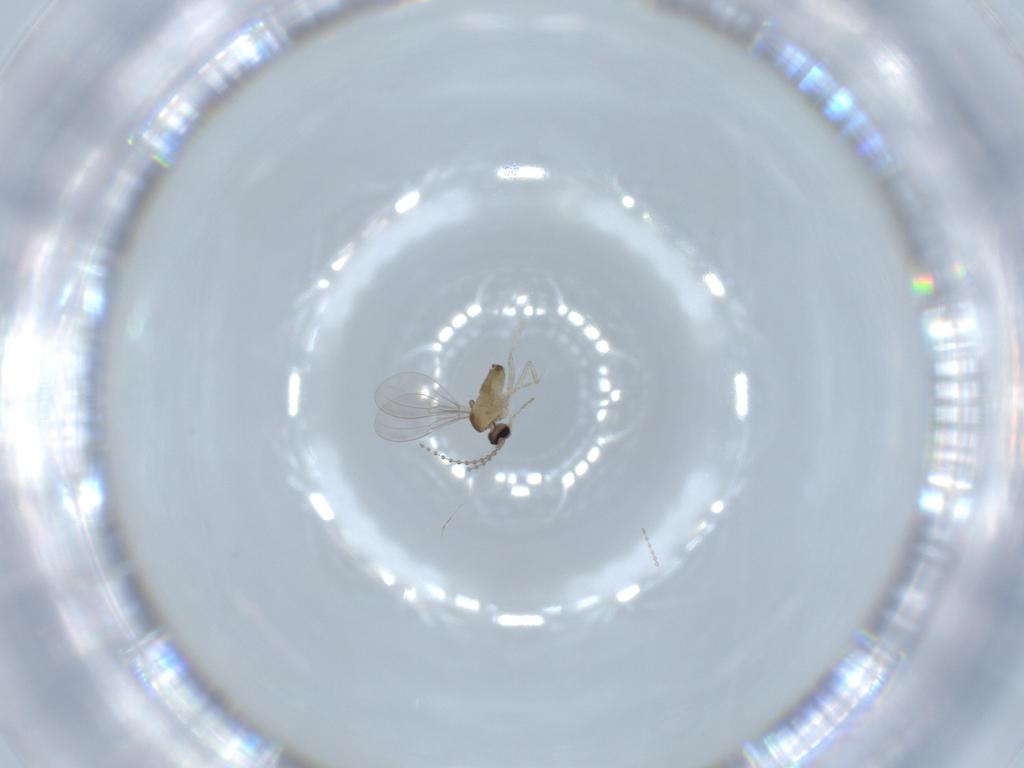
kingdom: Animalia
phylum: Arthropoda
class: Insecta
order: Diptera
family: Cecidomyiidae
